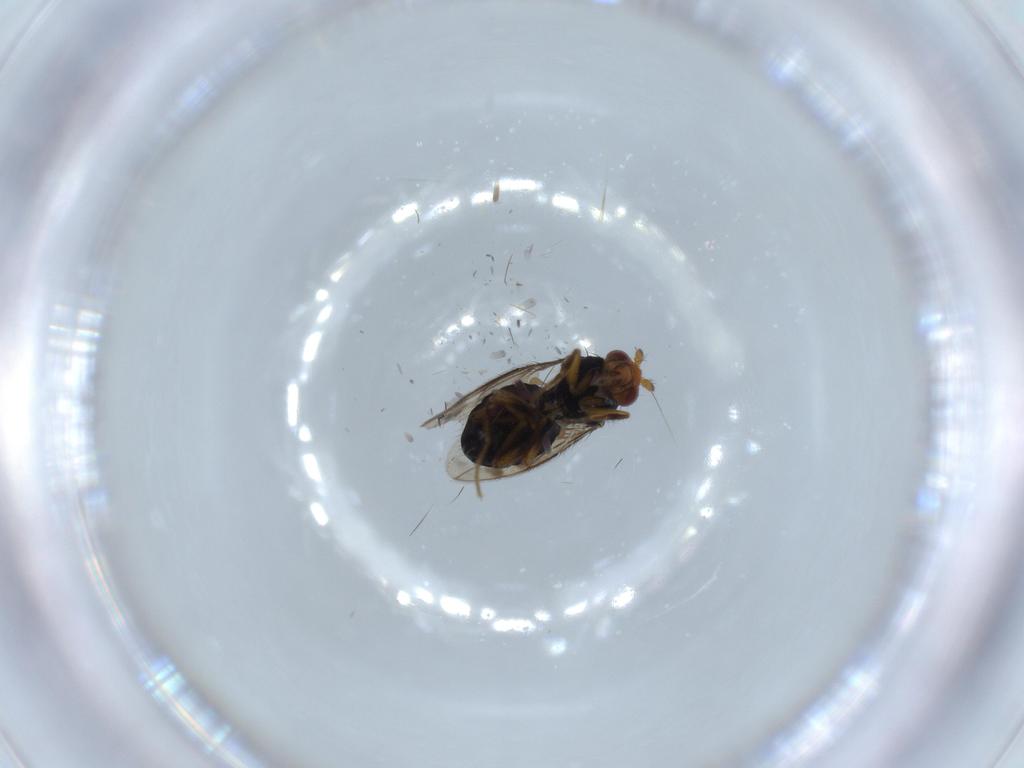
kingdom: Animalia
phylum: Arthropoda
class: Insecta
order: Diptera
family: Sphaeroceridae
